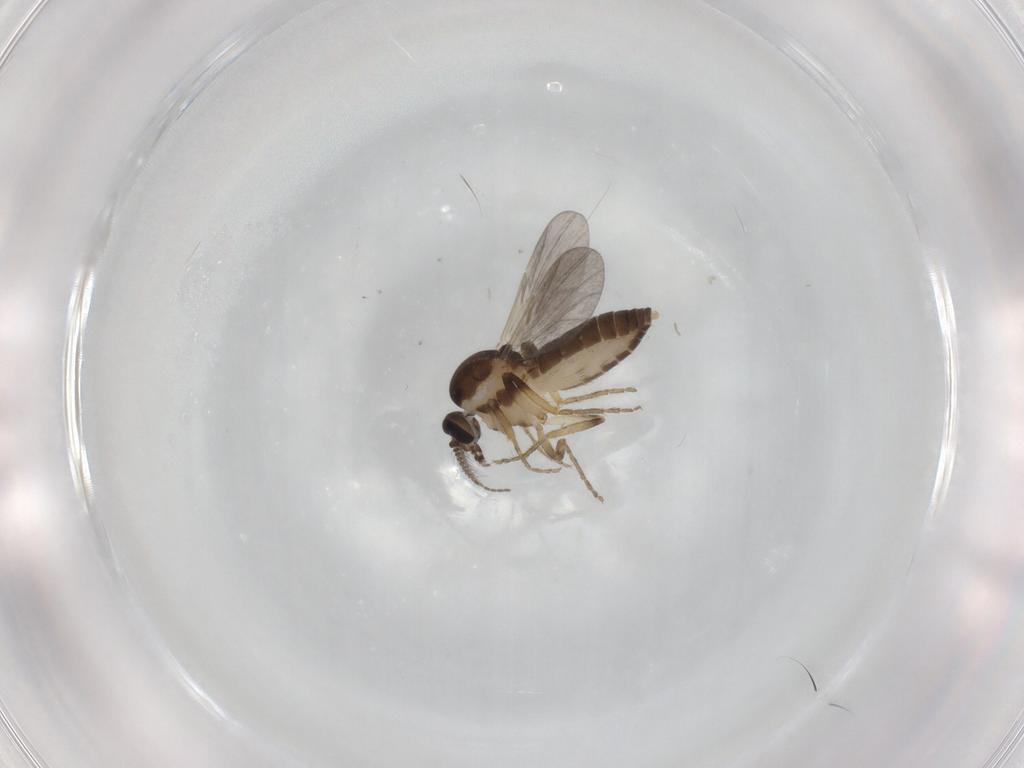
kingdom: Animalia
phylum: Arthropoda
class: Insecta
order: Diptera
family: Ceratopogonidae
